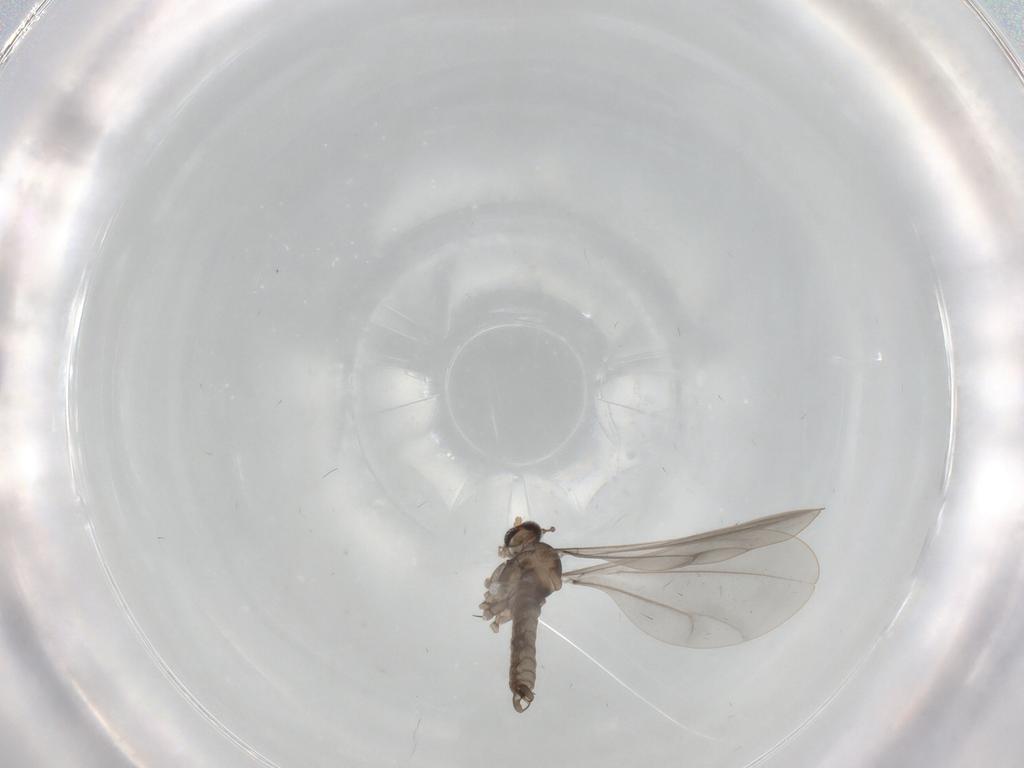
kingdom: Animalia
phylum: Arthropoda
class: Insecta
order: Diptera
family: Cecidomyiidae
